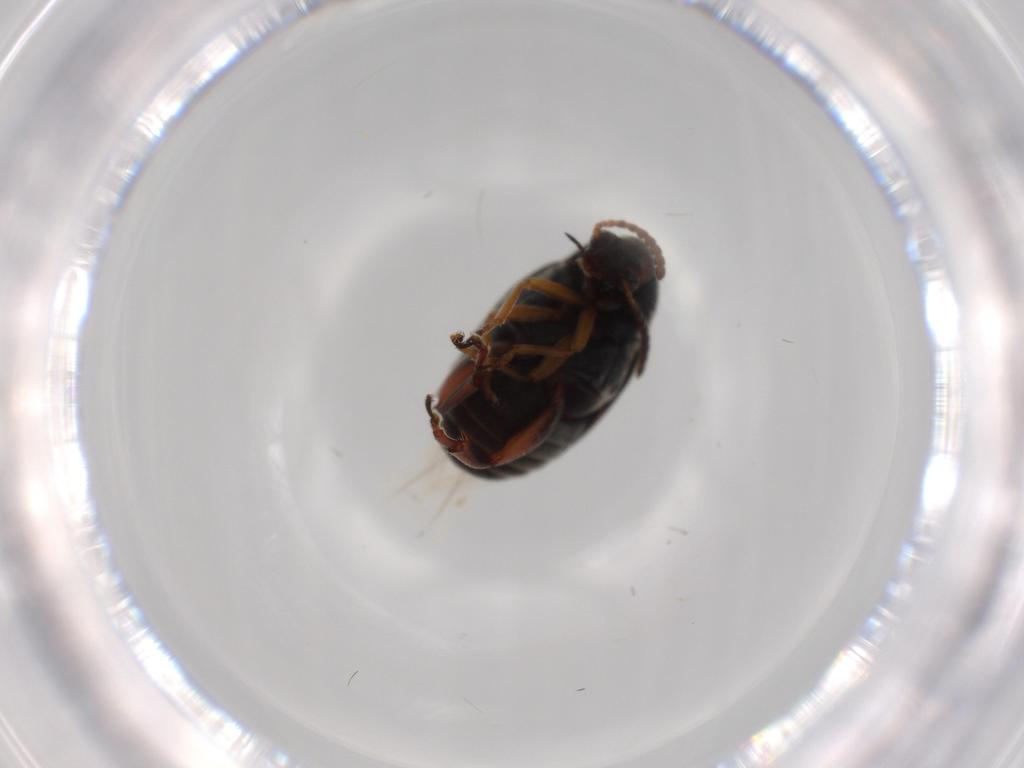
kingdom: Animalia
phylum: Arthropoda
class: Insecta
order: Coleoptera
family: Chrysomelidae
